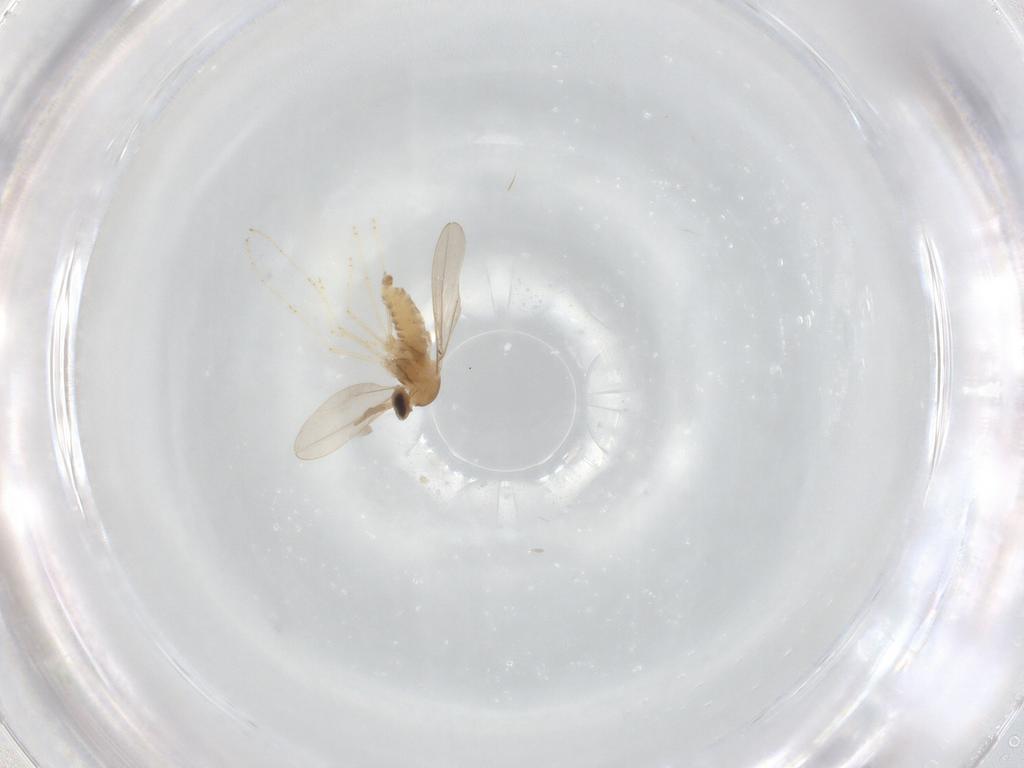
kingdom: Animalia
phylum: Arthropoda
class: Insecta
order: Diptera
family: Cecidomyiidae
